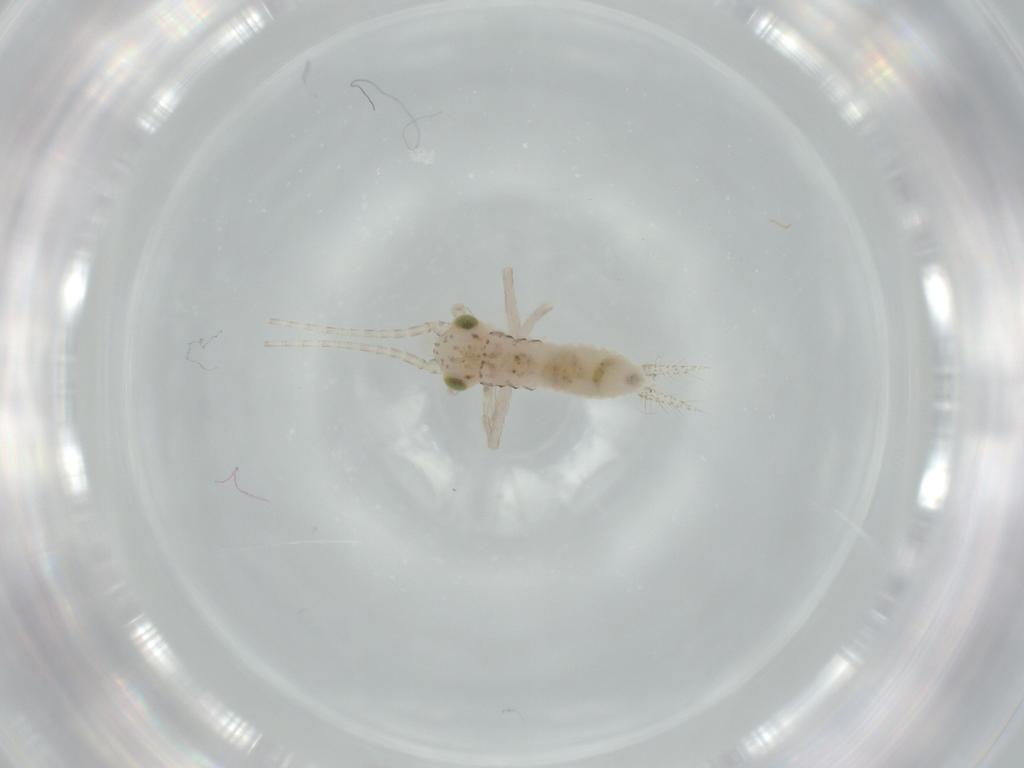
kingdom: Animalia
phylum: Arthropoda
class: Insecta
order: Orthoptera
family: Trigonidiidae
